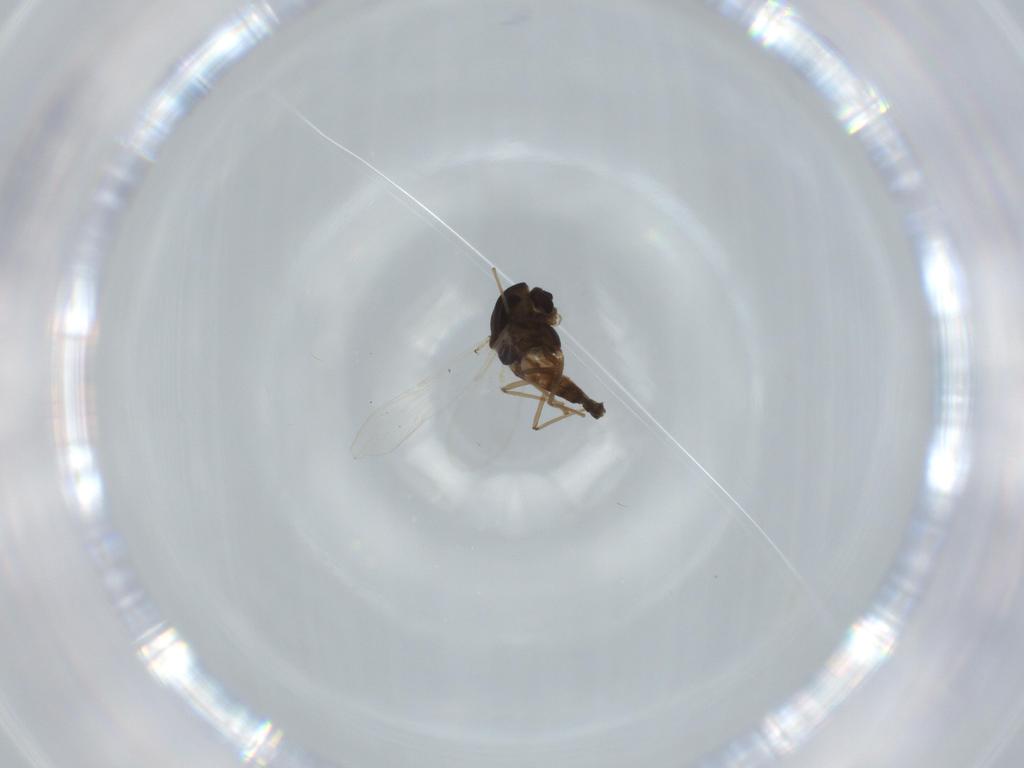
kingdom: Animalia
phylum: Arthropoda
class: Insecta
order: Diptera
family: Chironomidae
